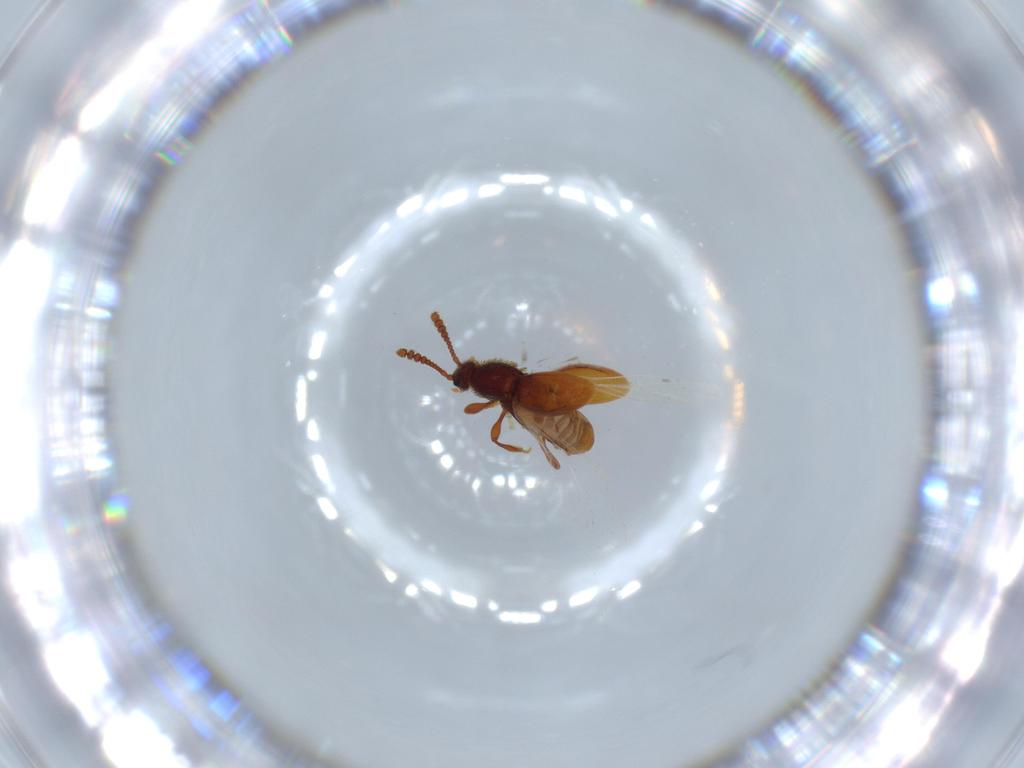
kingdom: Animalia
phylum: Arthropoda
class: Insecta
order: Coleoptera
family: Staphylinidae
